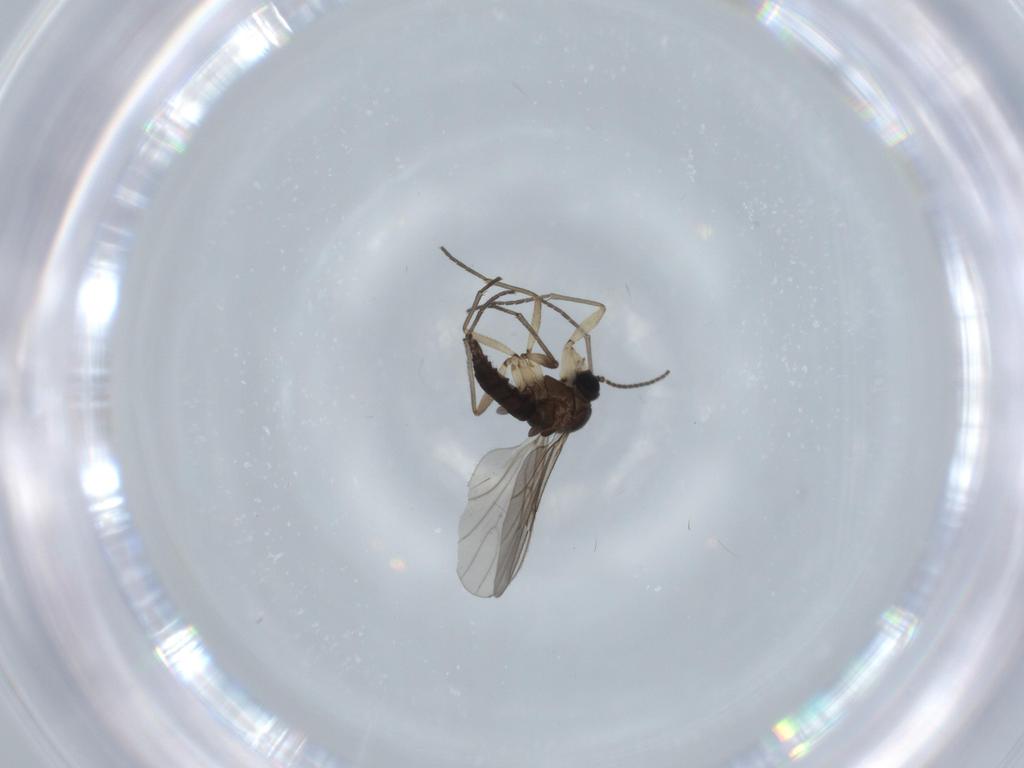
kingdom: Animalia
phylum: Arthropoda
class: Insecta
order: Diptera
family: Sciaridae
